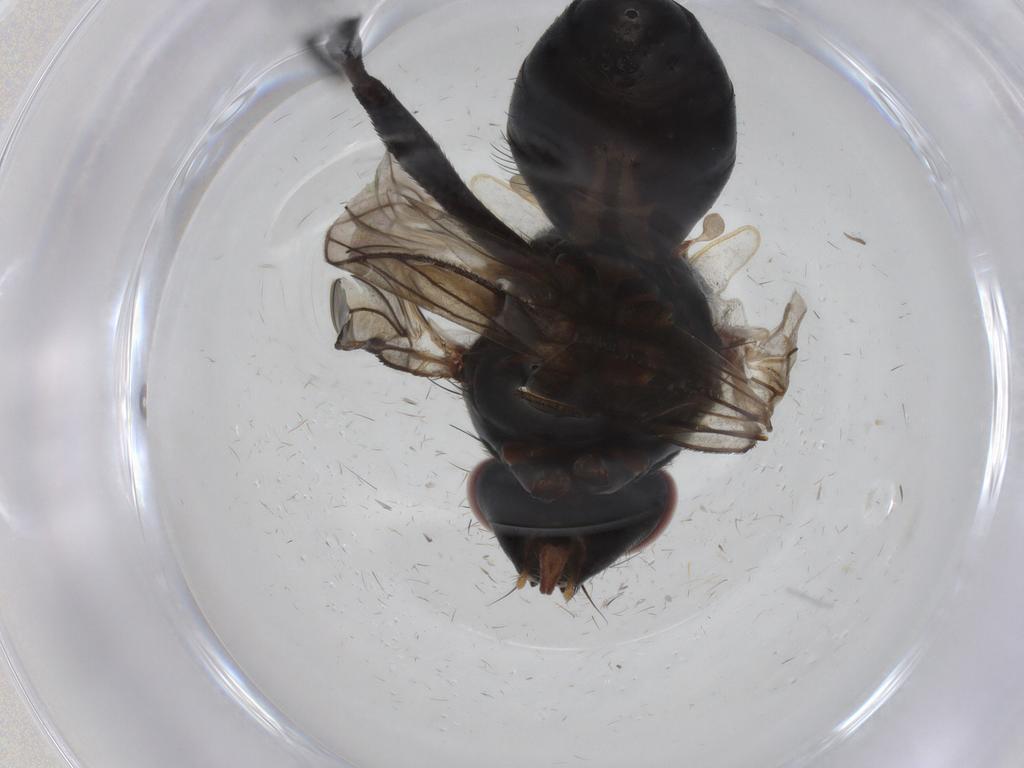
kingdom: Animalia
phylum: Arthropoda
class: Insecta
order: Diptera
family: Tachinidae
